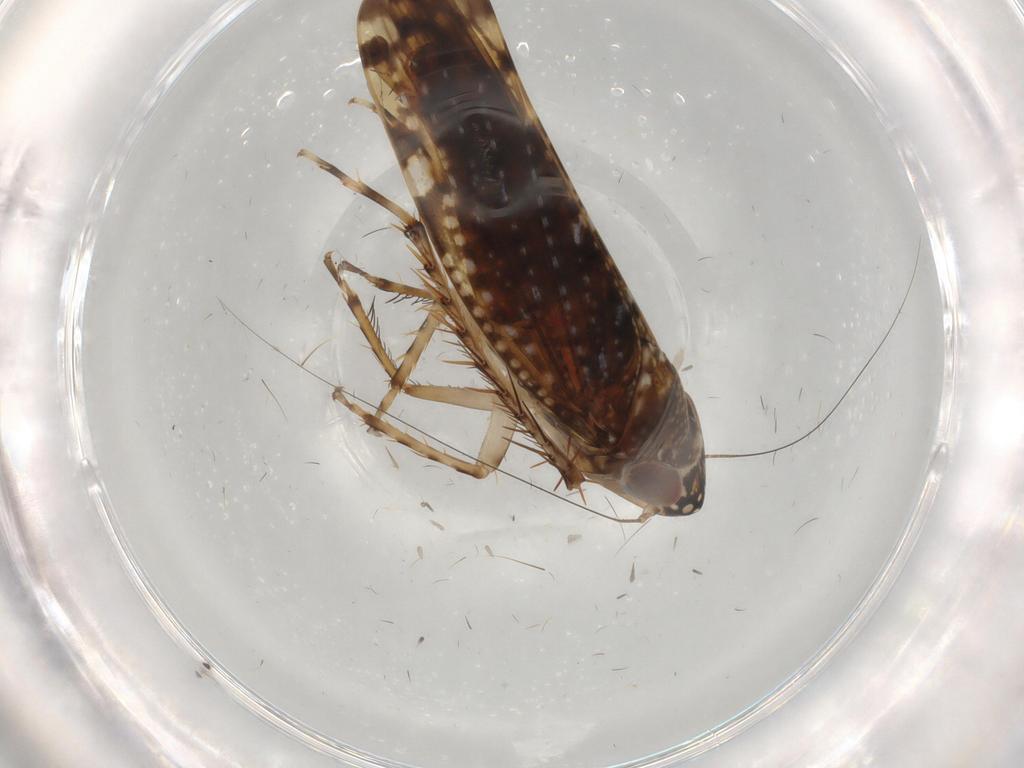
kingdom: Animalia
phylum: Arthropoda
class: Insecta
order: Hemiptera
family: Cicadellidae
